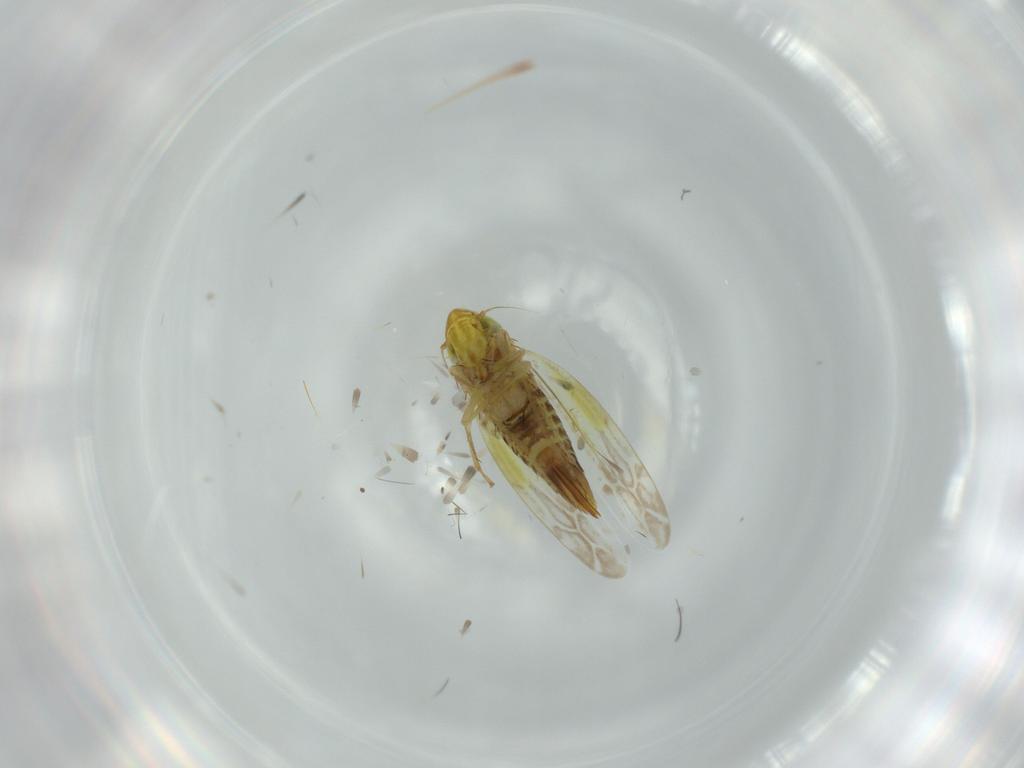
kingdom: Animalia
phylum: Arthropoda
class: Insecta
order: Hemiptera
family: Cicadellidae
